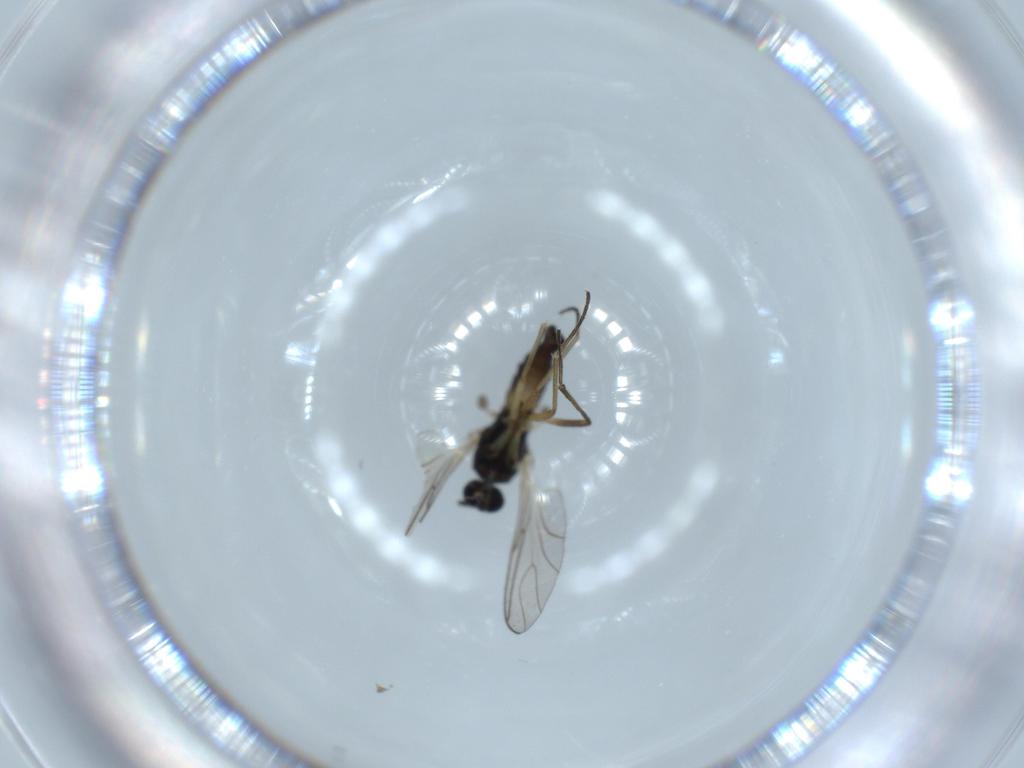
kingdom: Animalia
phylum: Arthropoda
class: Insecta
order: Diptera
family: Sciaridae
